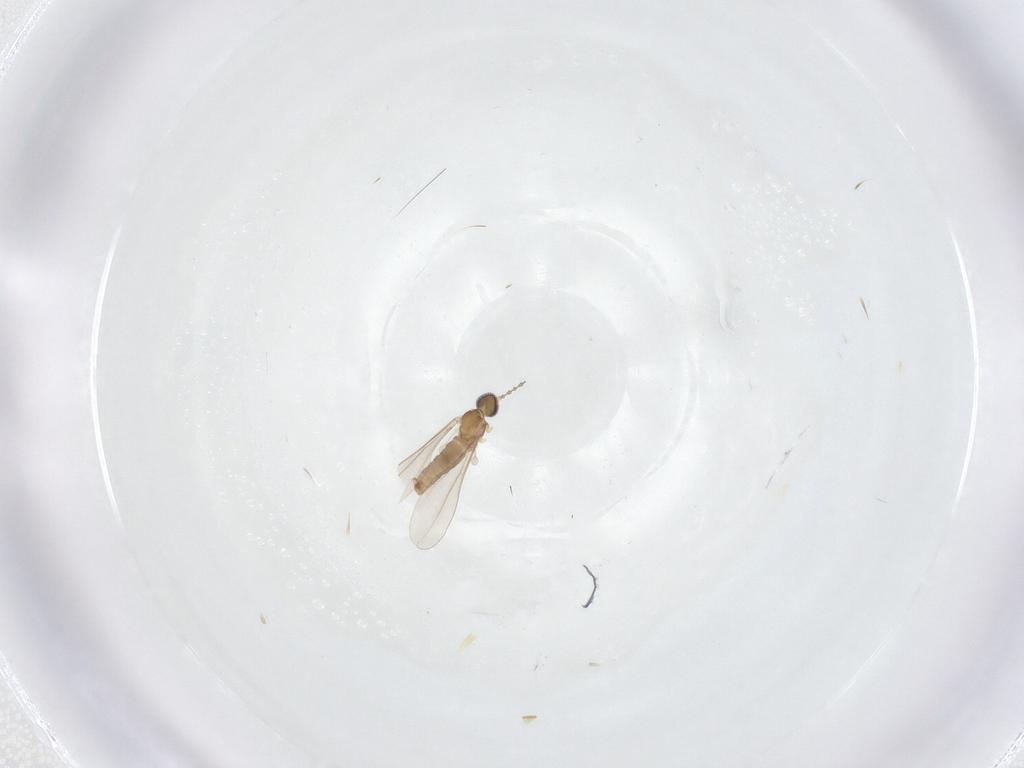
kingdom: Animalia
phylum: Arthropoda
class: Insecta
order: Diptera
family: Cecidomyiidae
